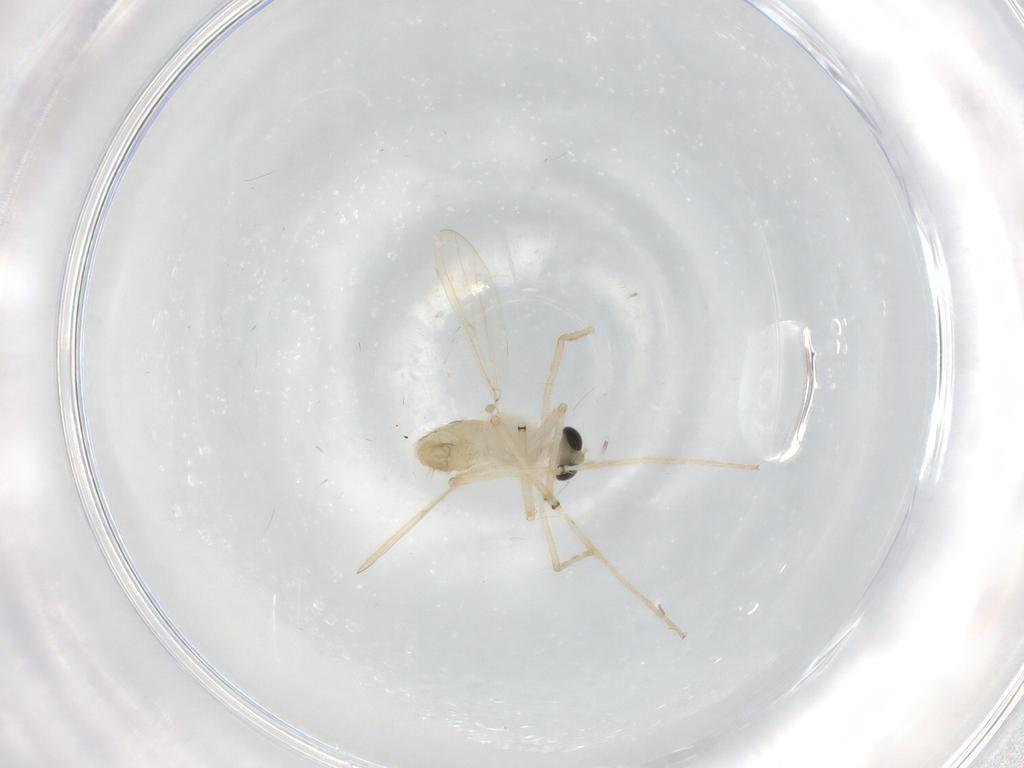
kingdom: Animalia
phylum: Arthropoda
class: Insecta
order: Diptera
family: Chironomidae
